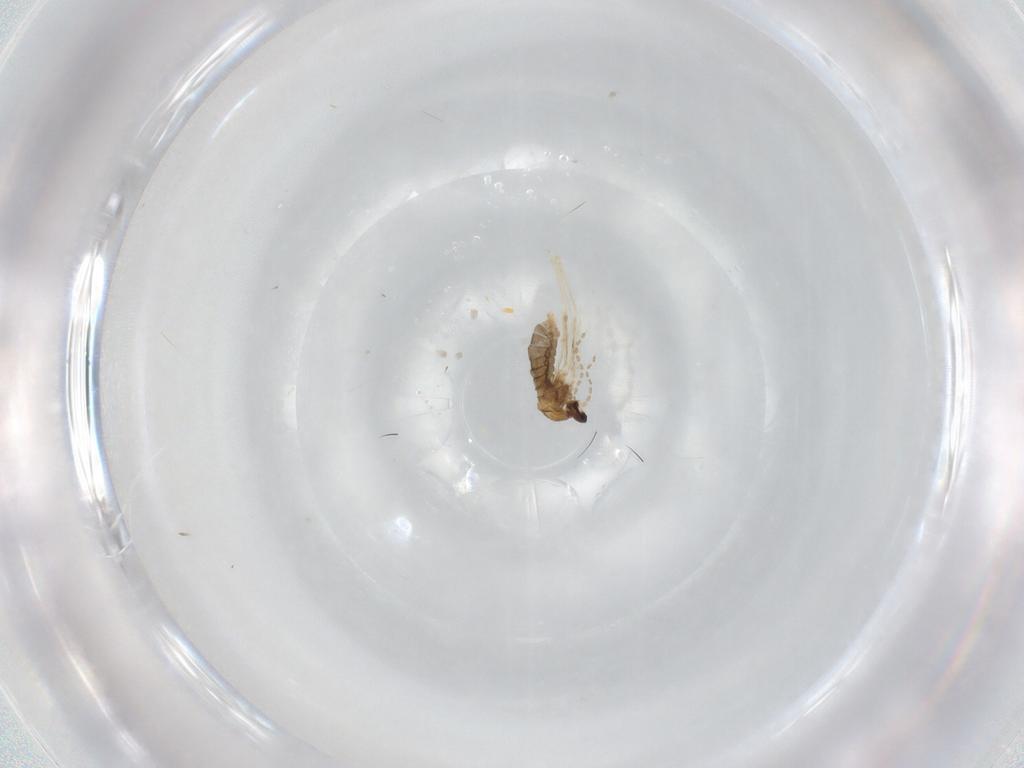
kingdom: Animalia
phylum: Arthropoda
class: Insecta
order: Diptera
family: Cecidomyiidae
